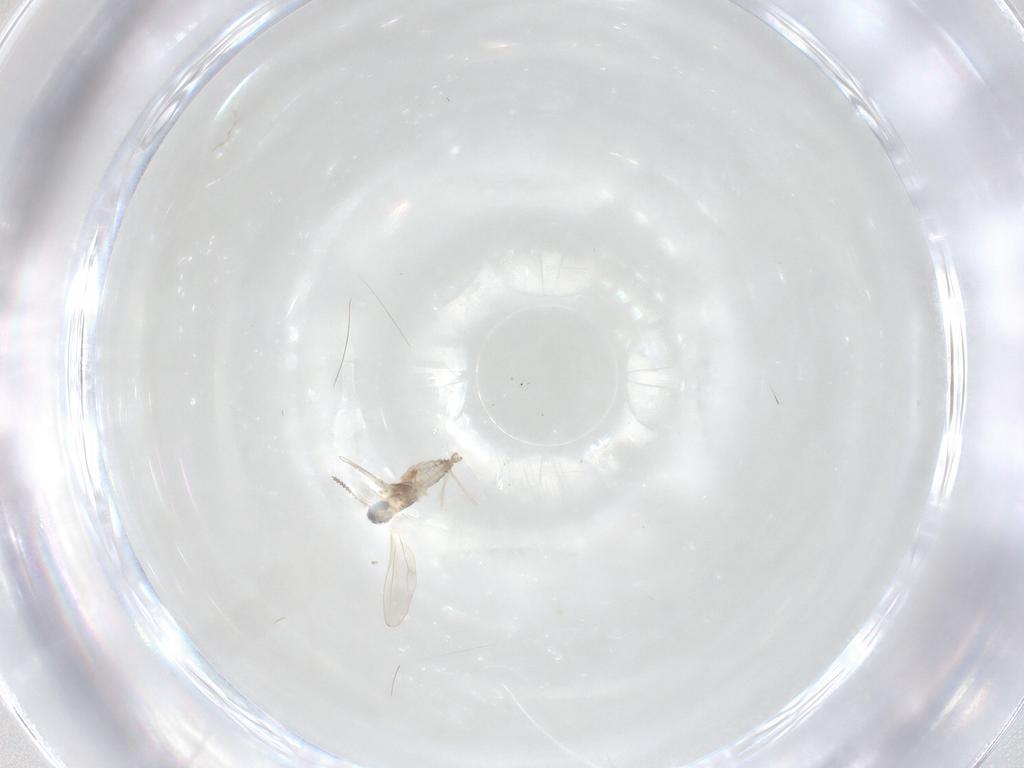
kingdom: Animalia
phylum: Arthropoda
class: Insecta
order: Diptera
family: Cecidomyiidae
